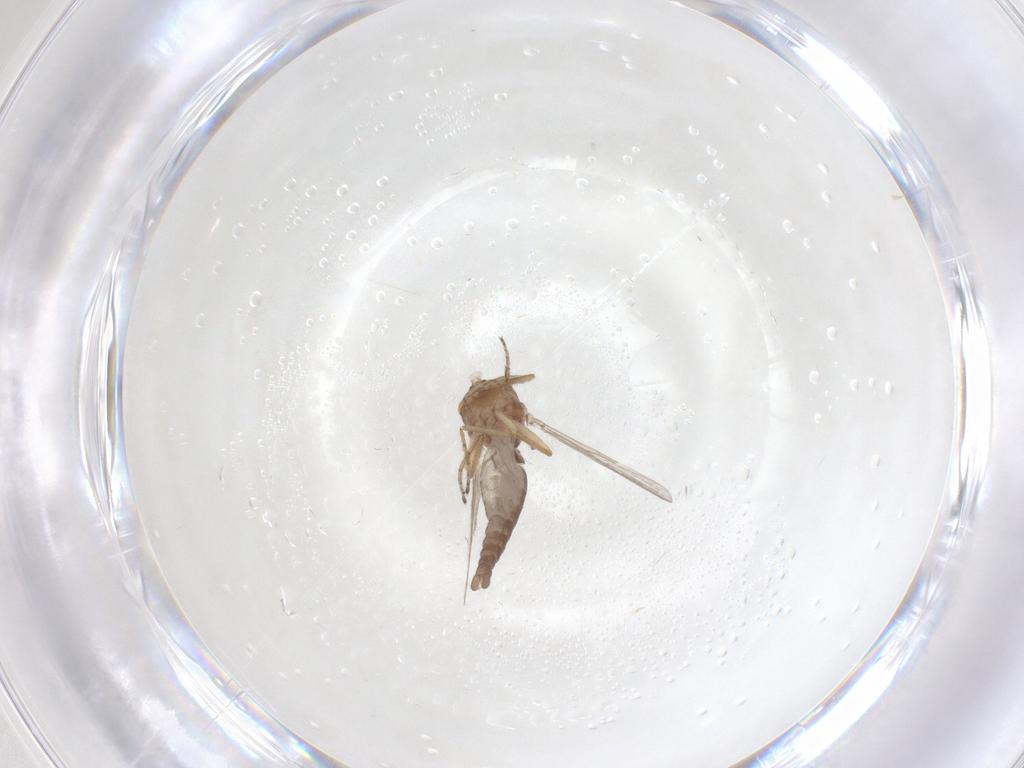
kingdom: Animalia
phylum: Arthropoda
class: Insecta
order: Diptera
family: Ceratopogonidae
